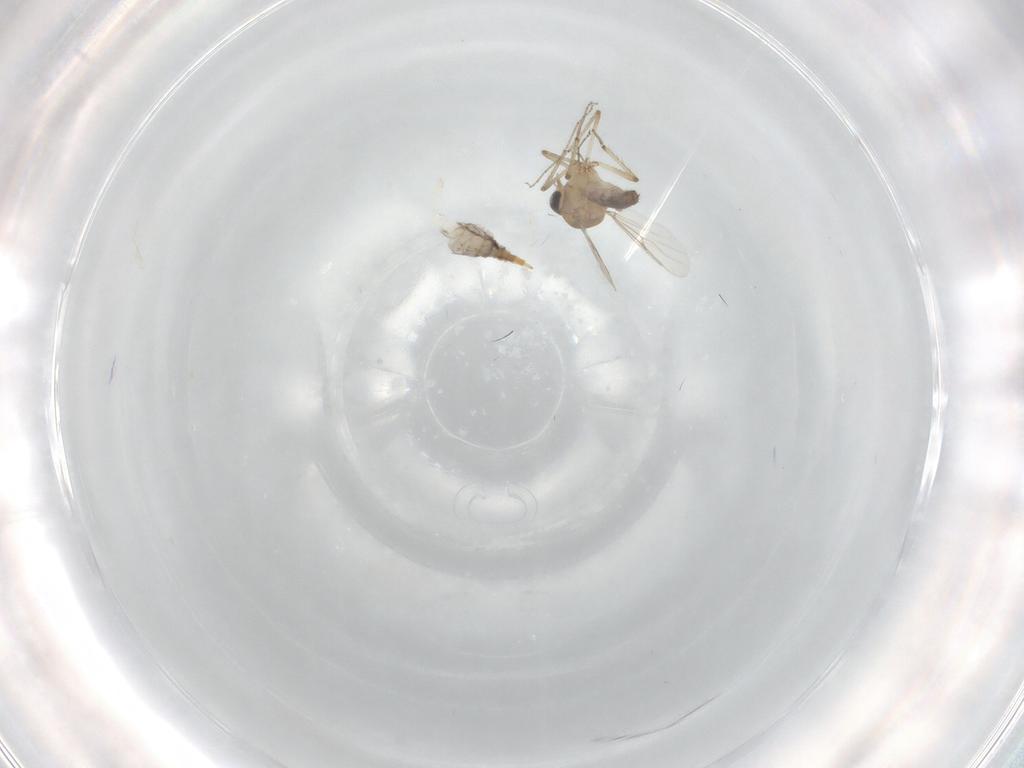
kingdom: Animalia
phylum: Arthropoda
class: Insecta
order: Diptera
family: Ceratopogonidae
